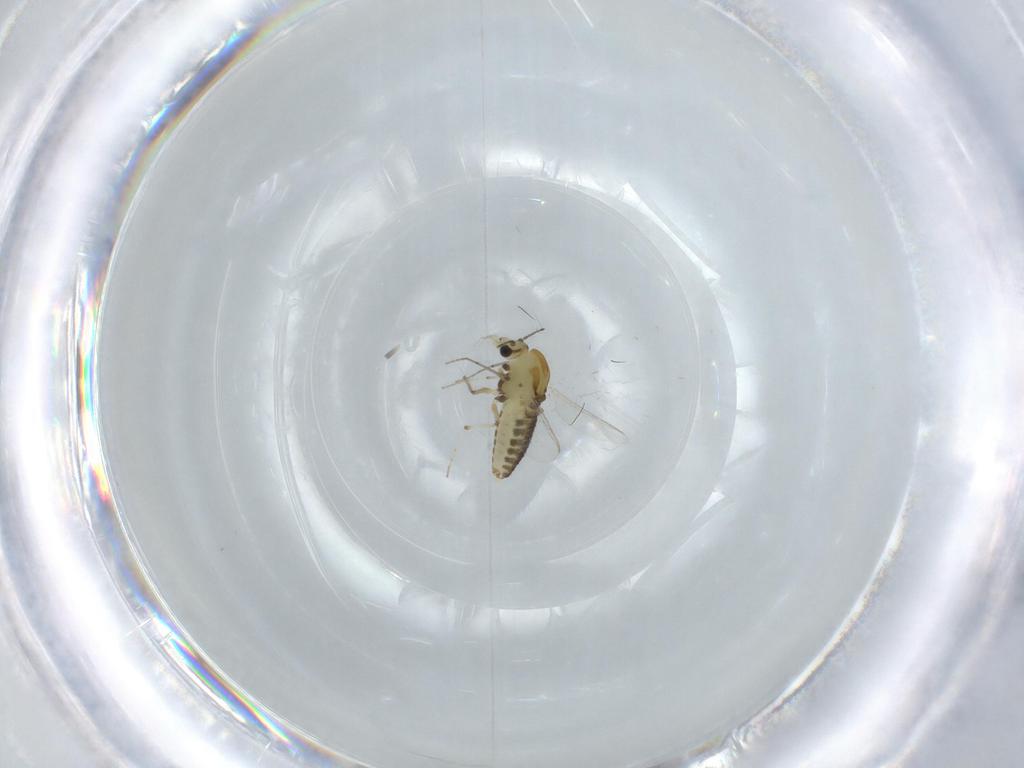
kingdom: Animalia
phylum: Arthropoda
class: Insecta
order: Diptera
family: Chironomidae
